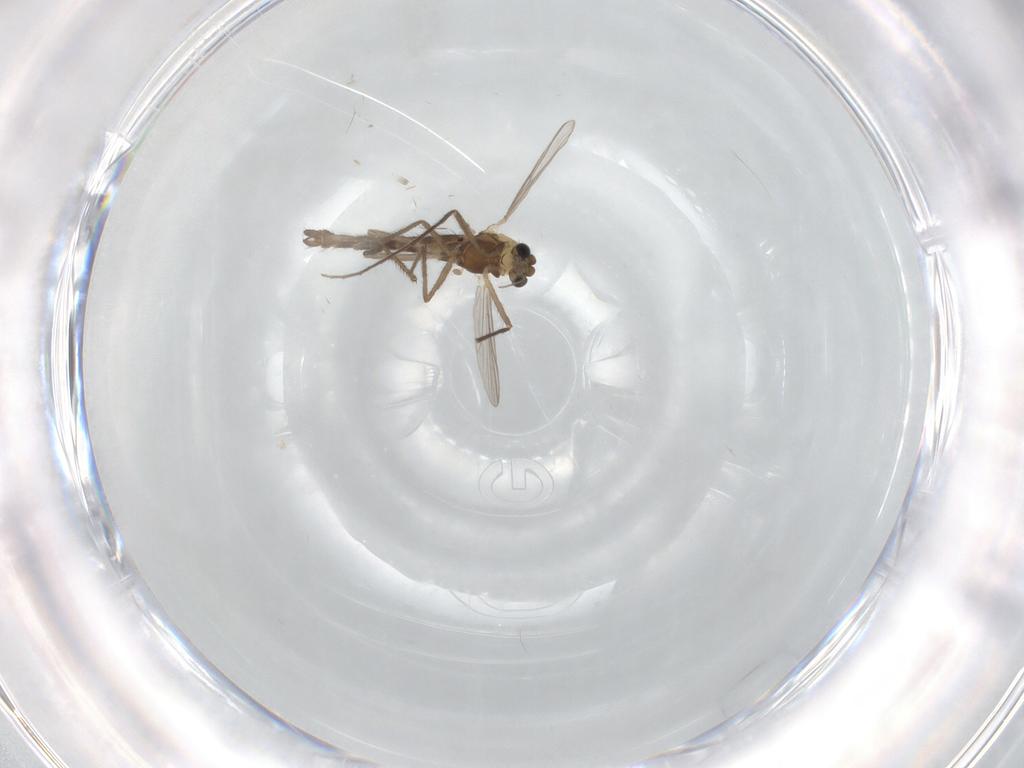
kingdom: Animalia
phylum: Arthropoda
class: Insecta
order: Diptera
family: Chironomidae
